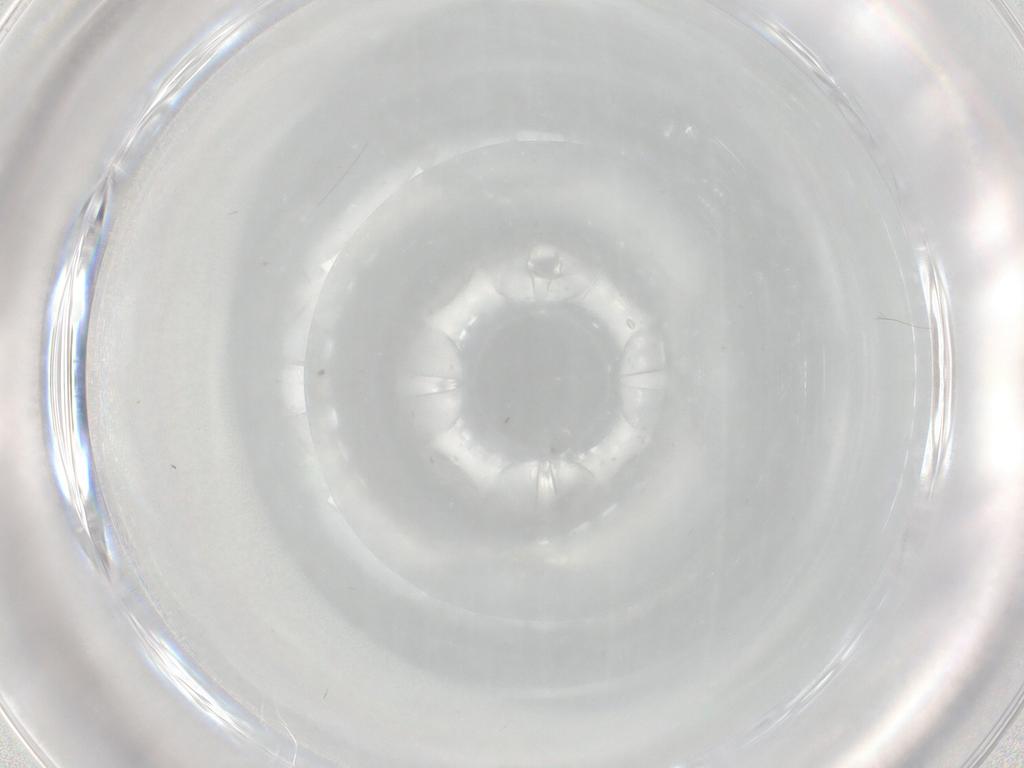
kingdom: Animalia
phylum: Arthropoda
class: Insecta
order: Diptera
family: Cecidomyiidae
